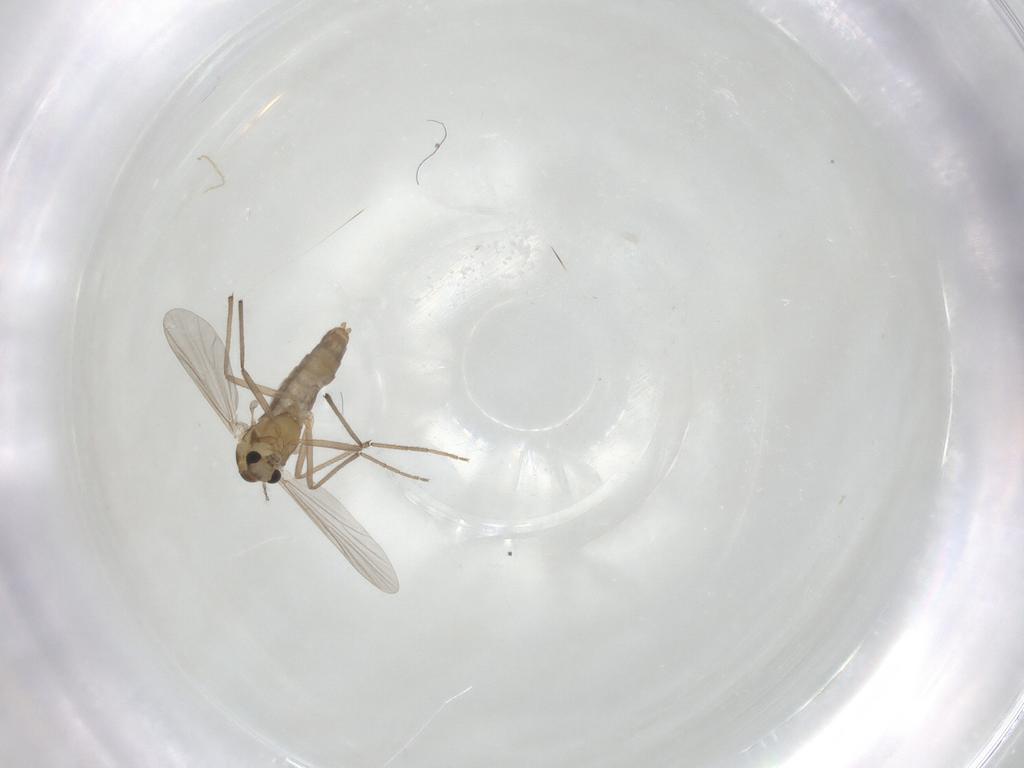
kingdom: Animalia
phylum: Arthropoda
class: Insecta
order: Diptera
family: Chironomidae
